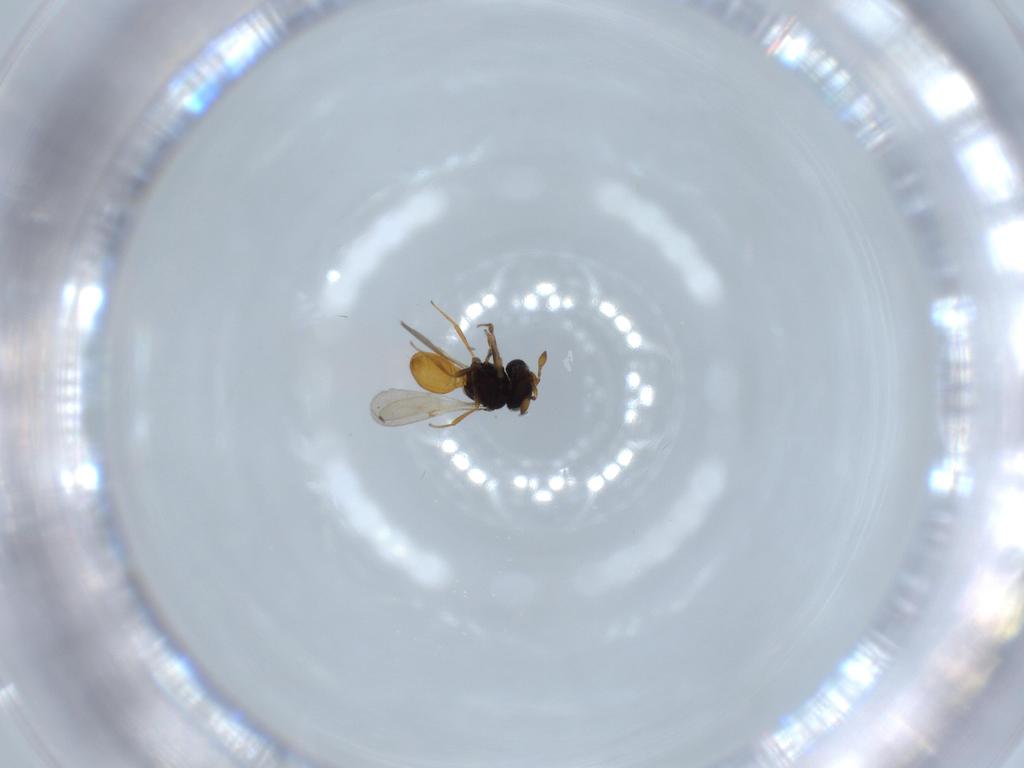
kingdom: Animalia
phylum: Arthropoda
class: Insecta
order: Hymenoptera
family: Scelionidae
